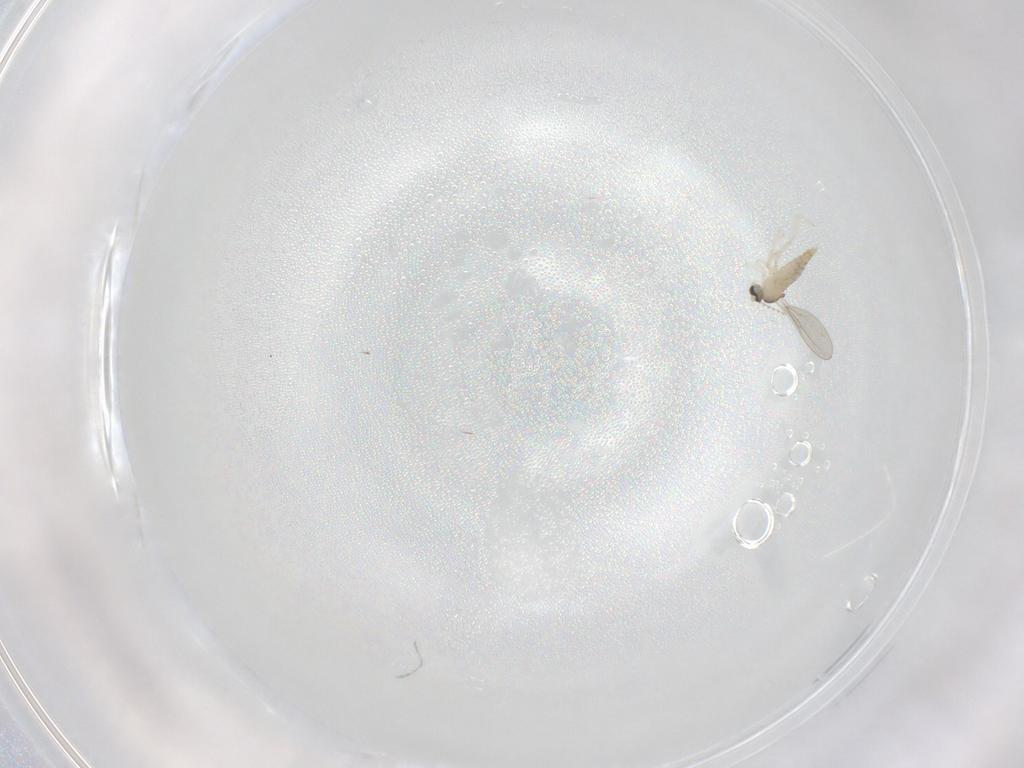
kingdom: Animalia
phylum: Arthropoda
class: Insecta
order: Diptera
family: Cecidomyiidae
